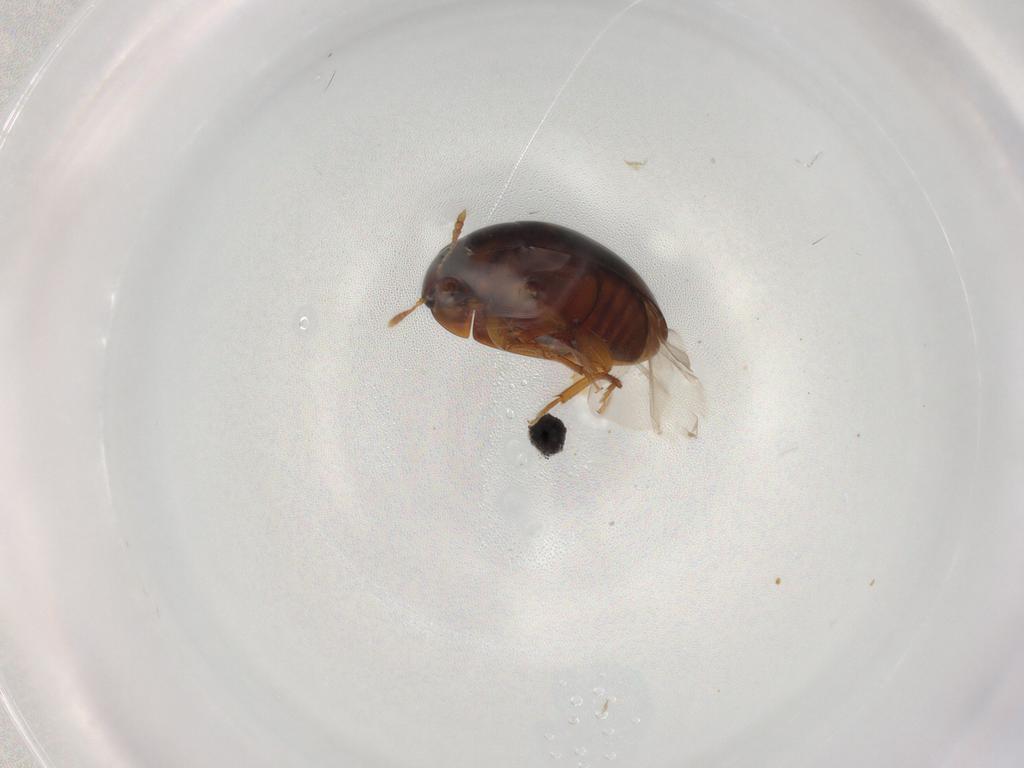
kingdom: Animalia
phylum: Arthropoda
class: Insecta
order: Coleoptera
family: Phalacridae
